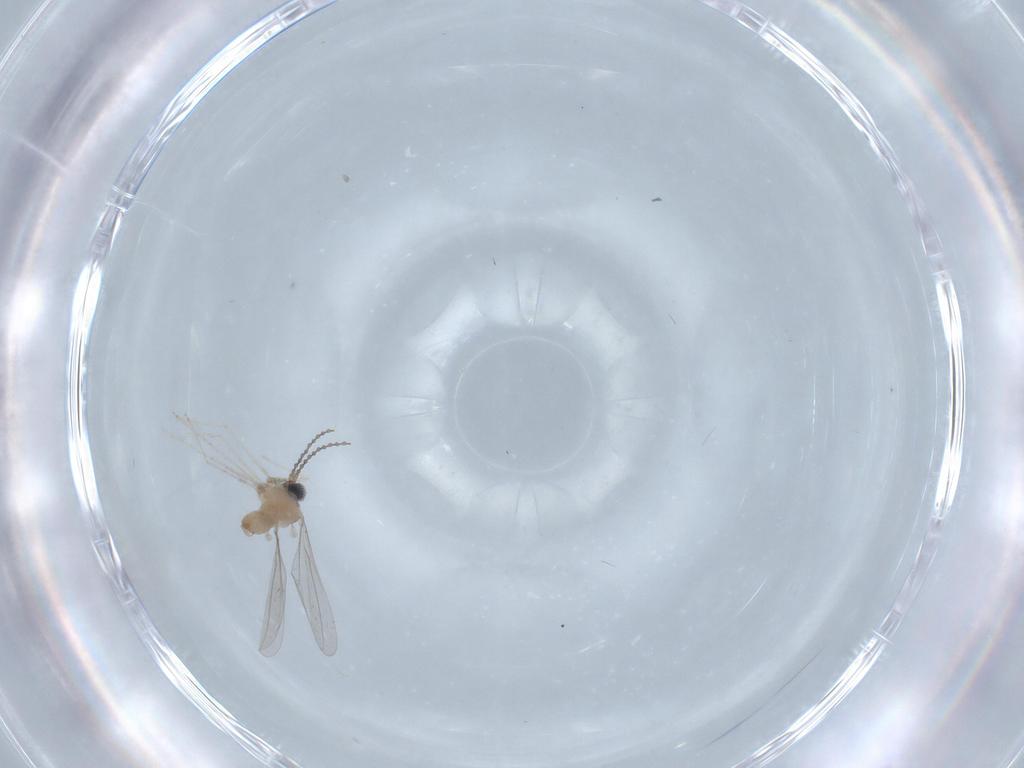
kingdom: Animalia
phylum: Arthropoda
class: Insecta
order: Diptera
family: Cecidomyiidae
